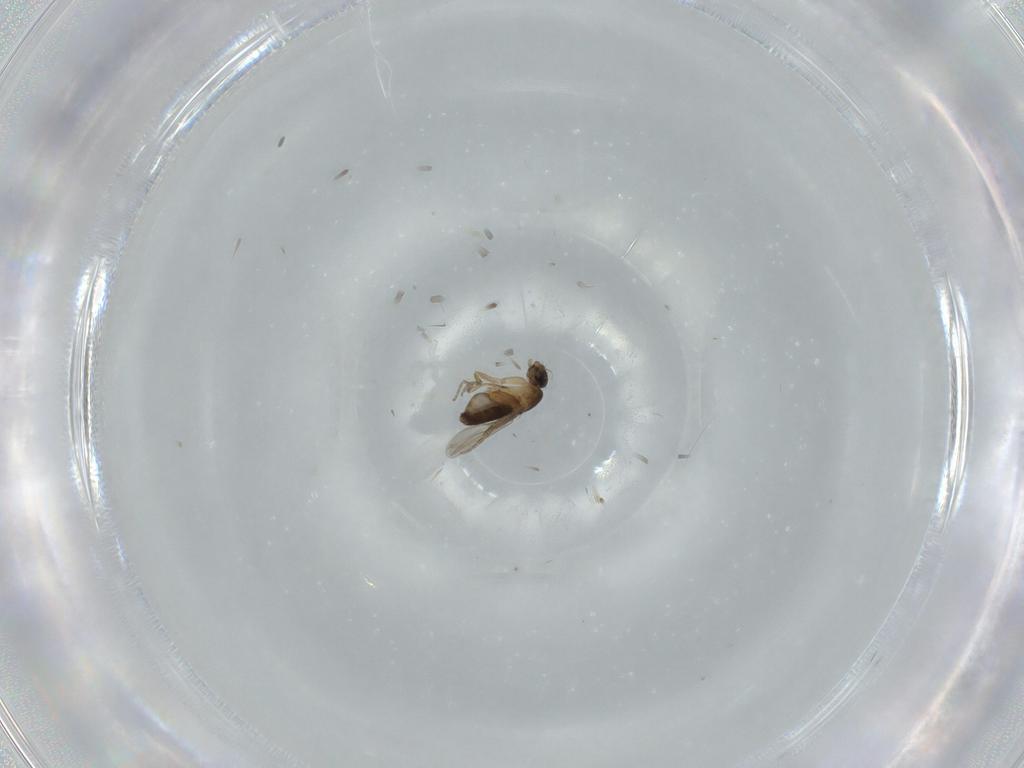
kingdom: Animalia
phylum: Arthropoda
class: Insecta
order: Diptera
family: Phoridae
